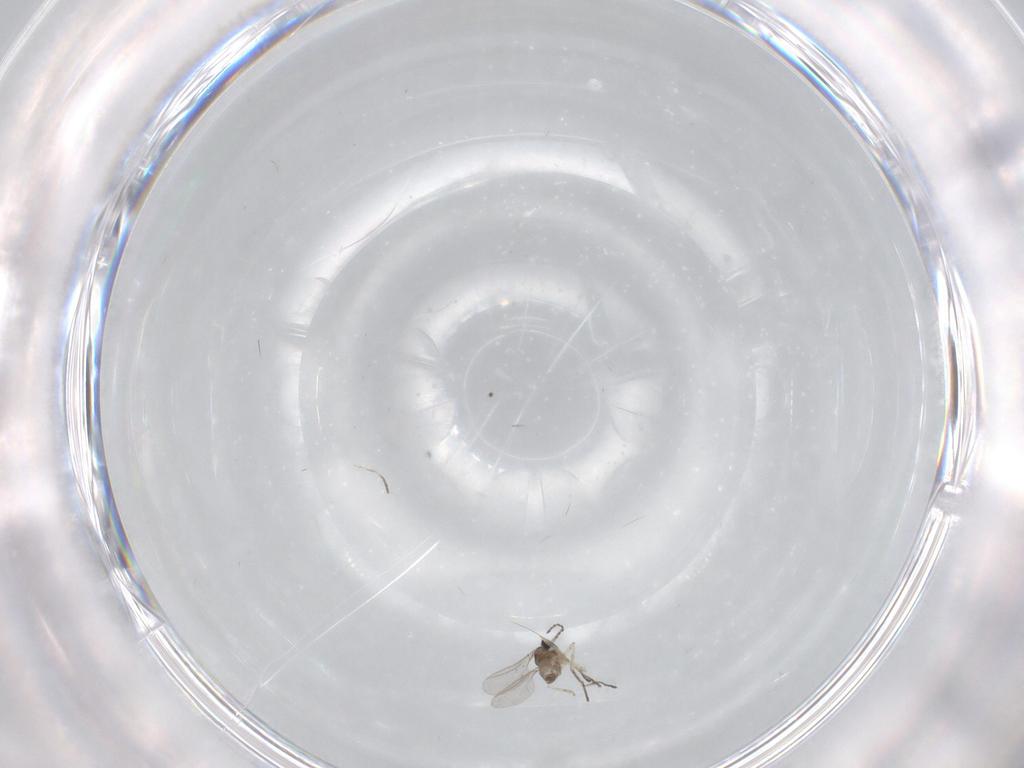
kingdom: Animalia
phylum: Arthropoda
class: Insecta
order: Diptera
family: Cecidomyiidae
